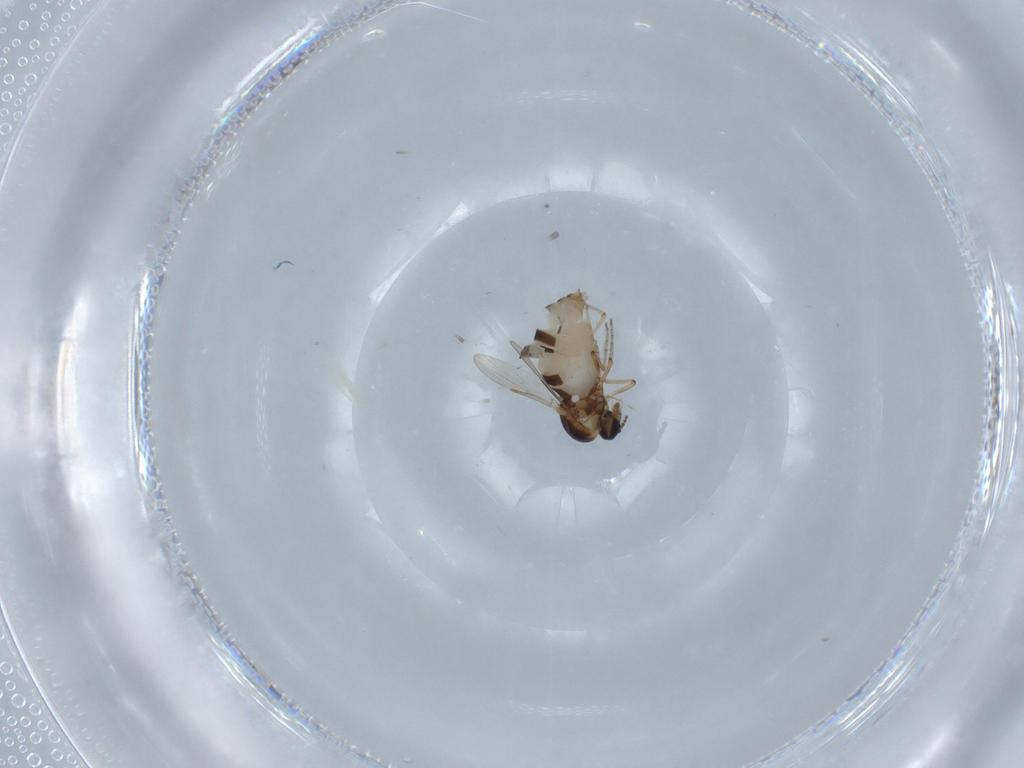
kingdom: Animalia
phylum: Arthropoda
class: Insecta
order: Diptera
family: Ceratopogonidae
